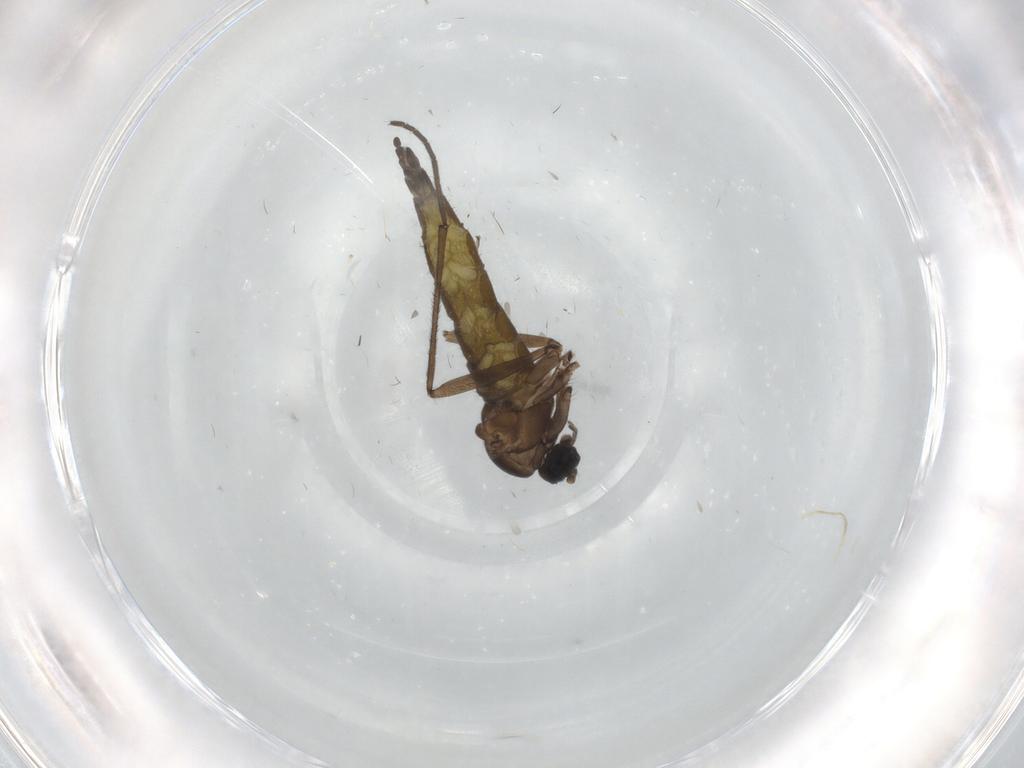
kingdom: Animalia
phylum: Arthropoda
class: Insecta
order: Diptera
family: Sciaridae
